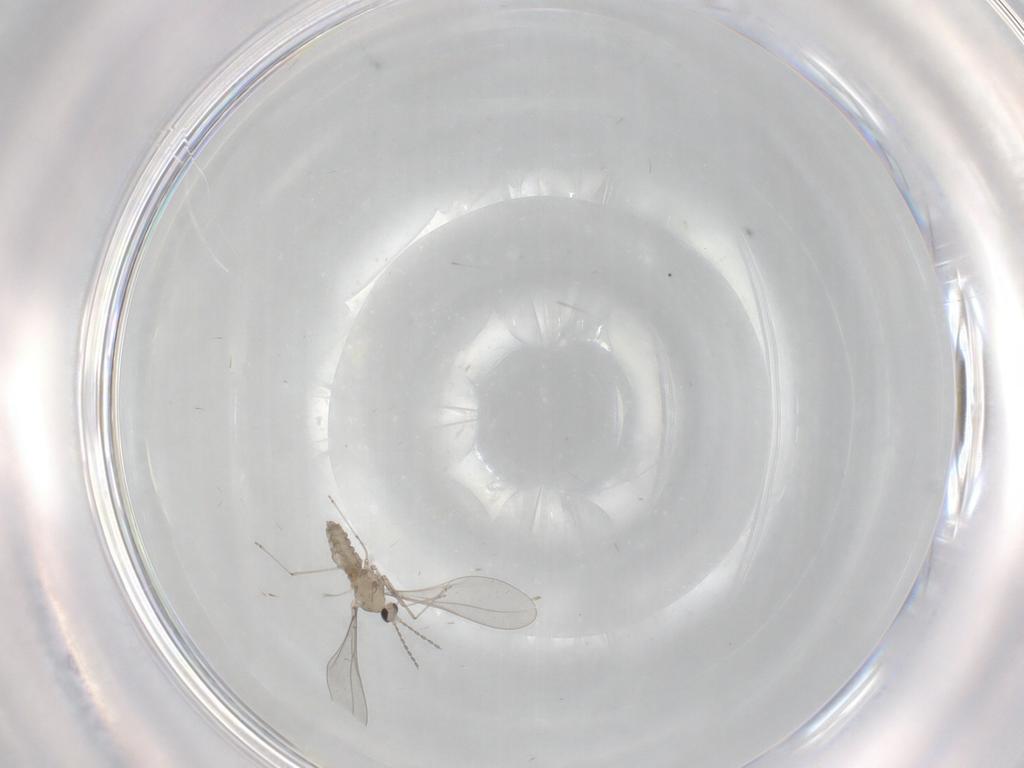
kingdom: Animalia
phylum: Arthropoda
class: Insecta
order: Diptera
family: Cecidomyiidae
